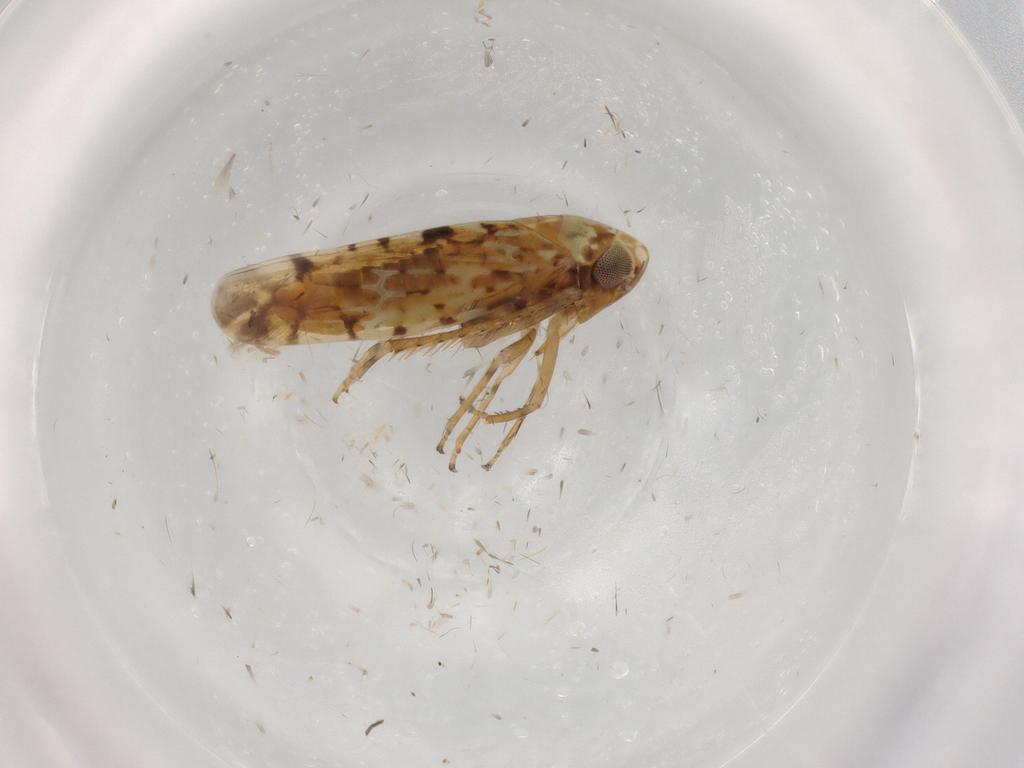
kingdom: Animalia
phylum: Arthropoda
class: Insecta
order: Hemiptera
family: Cicadellidae
